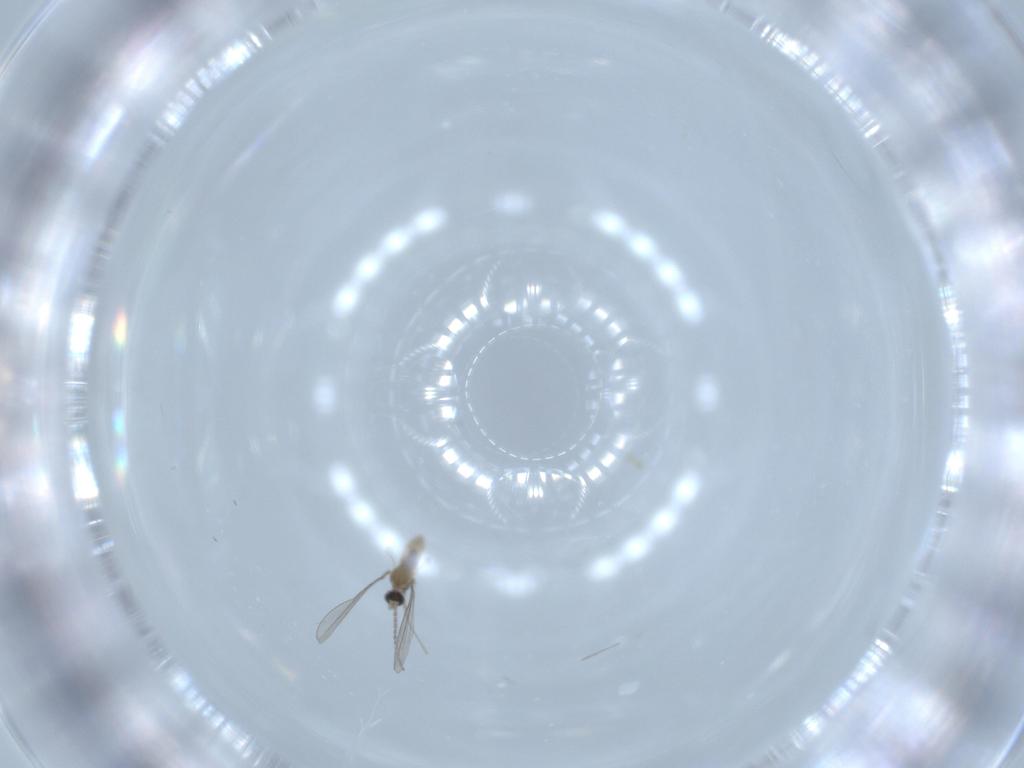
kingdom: Animalia
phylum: Arthropoda
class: Insecta
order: Diptera
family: Cecidomyiidae
